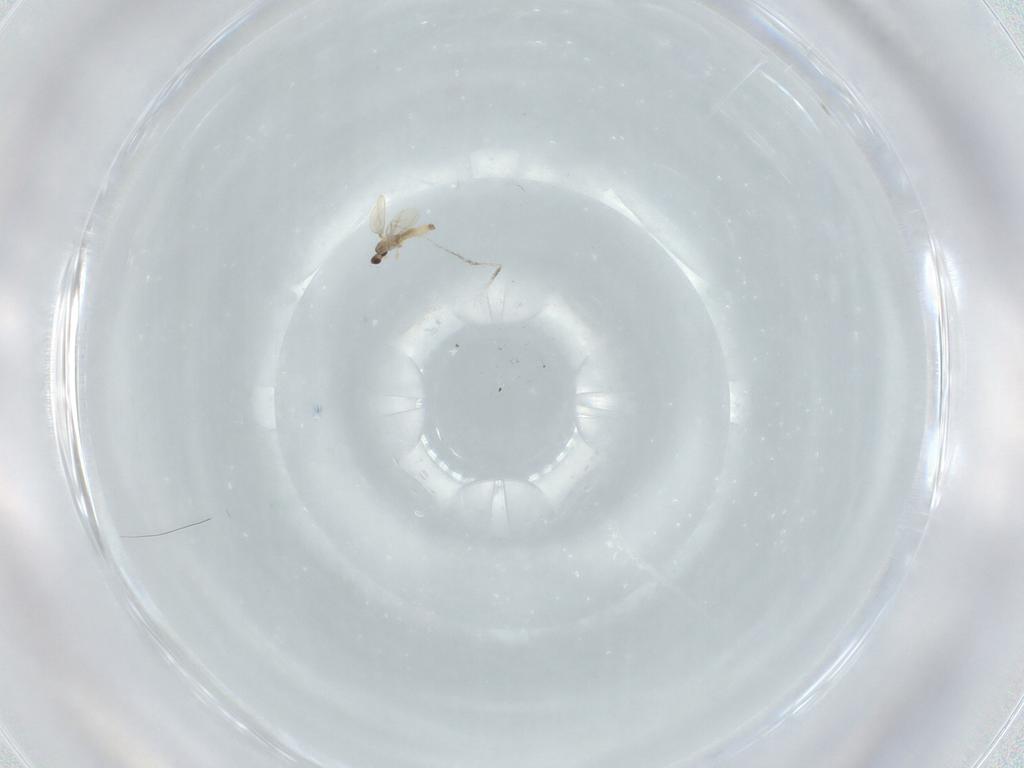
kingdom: Animalia
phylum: Arthropoda
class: Insecta
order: Diptera
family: Cecidomyiidae
